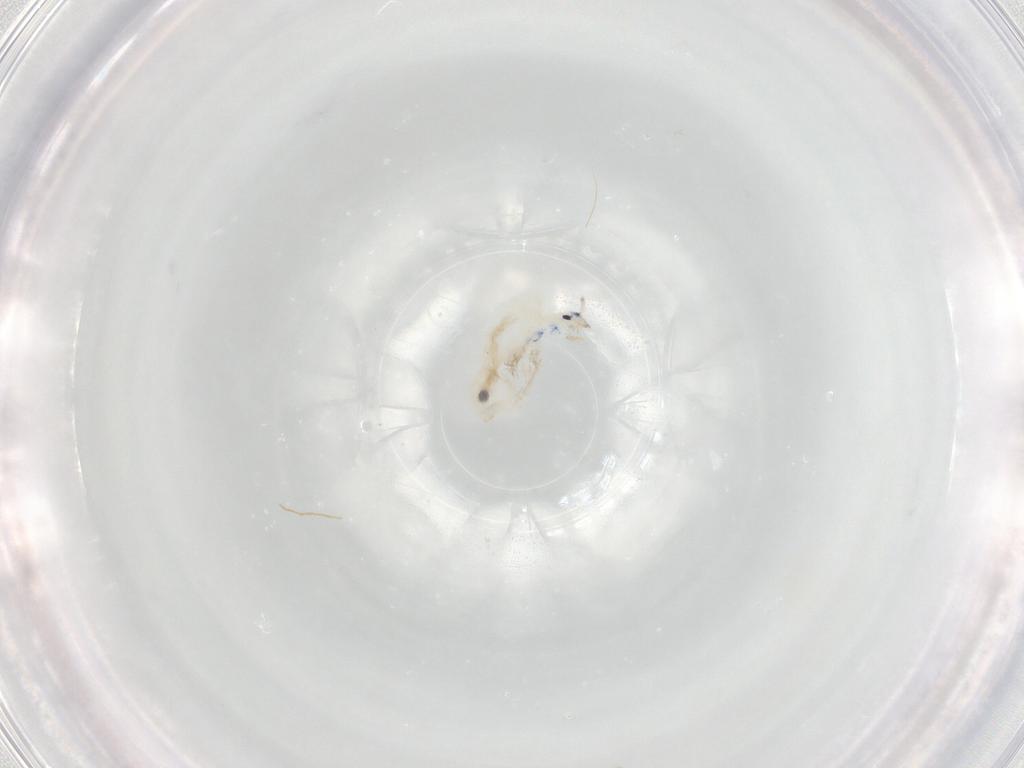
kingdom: Animalia
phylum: Arthropoda
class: Collembola
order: Entomobryomorpha
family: Entomobryidae
